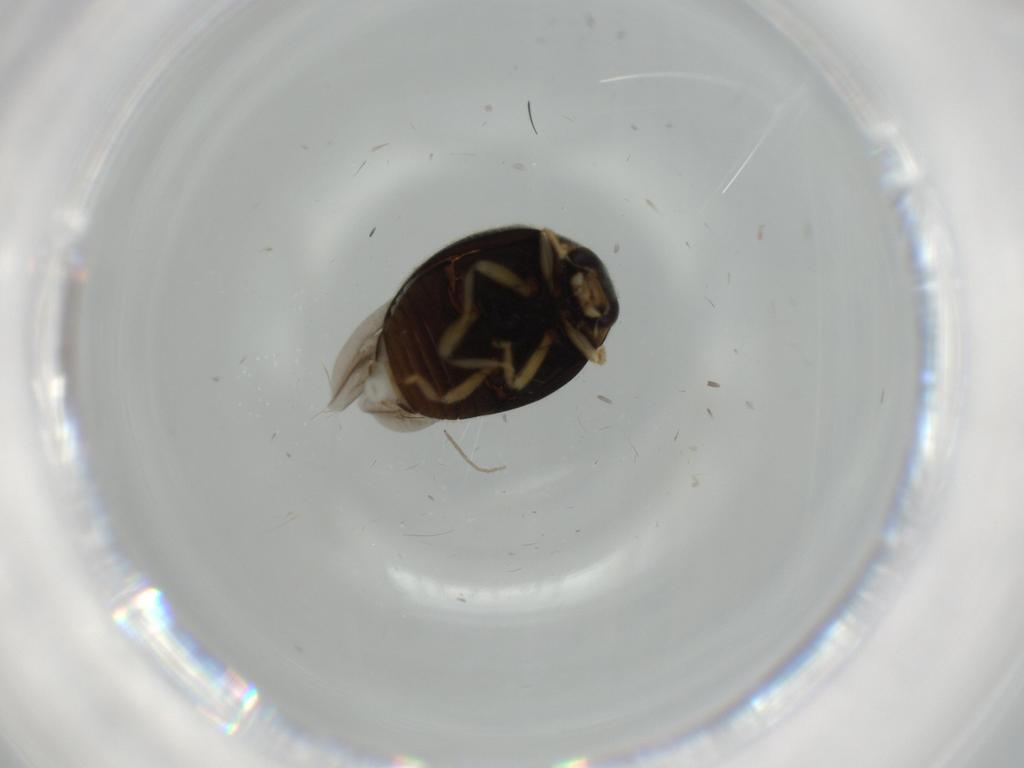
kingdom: Animalia
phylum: Arthropoda
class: Insecta
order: Coleoptera
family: Coccinellidae
